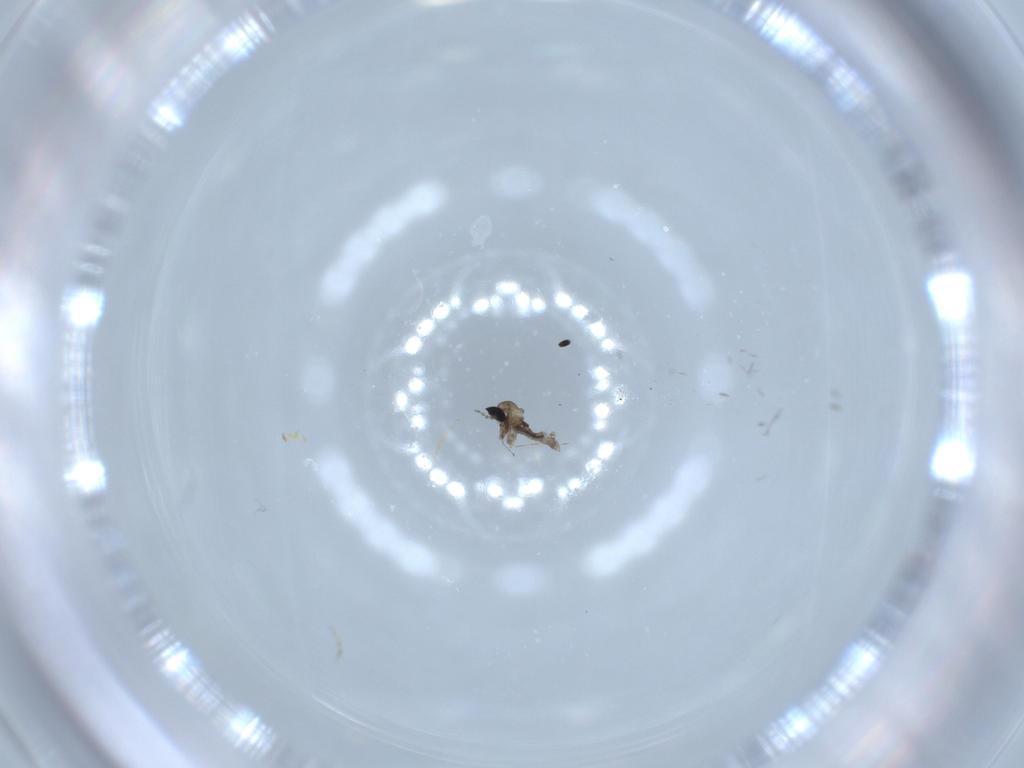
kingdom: Animalia
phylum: Arthropoda
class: Insecta
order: Diptera
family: Cecidomyiidae
